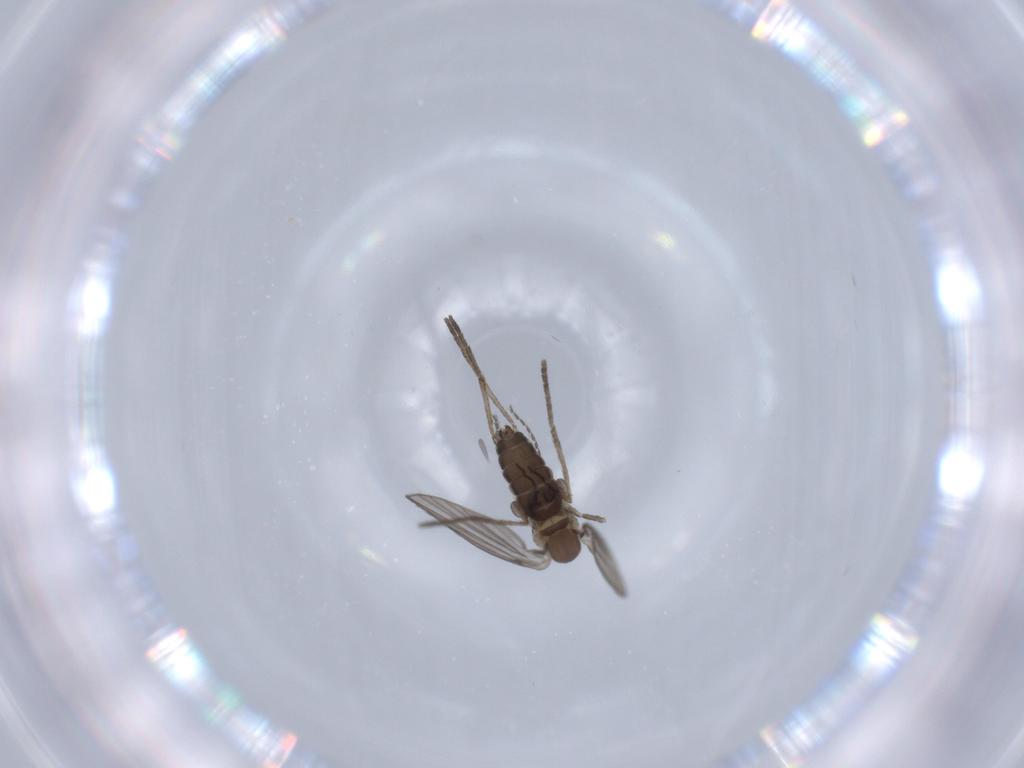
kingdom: Animalia
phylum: Arthropoda
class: Insecta
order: Diptera
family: Psychodidae
